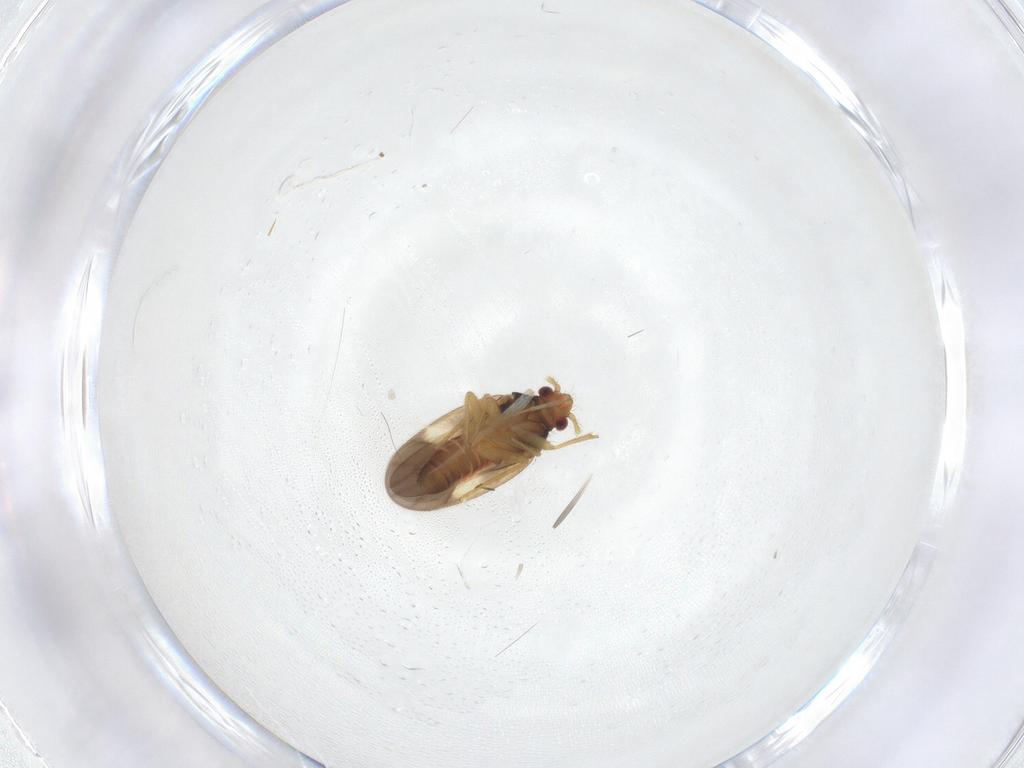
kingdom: Animalia
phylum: Arthropoda
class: Insecta
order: Hemiptera
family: Ceratocombidae
